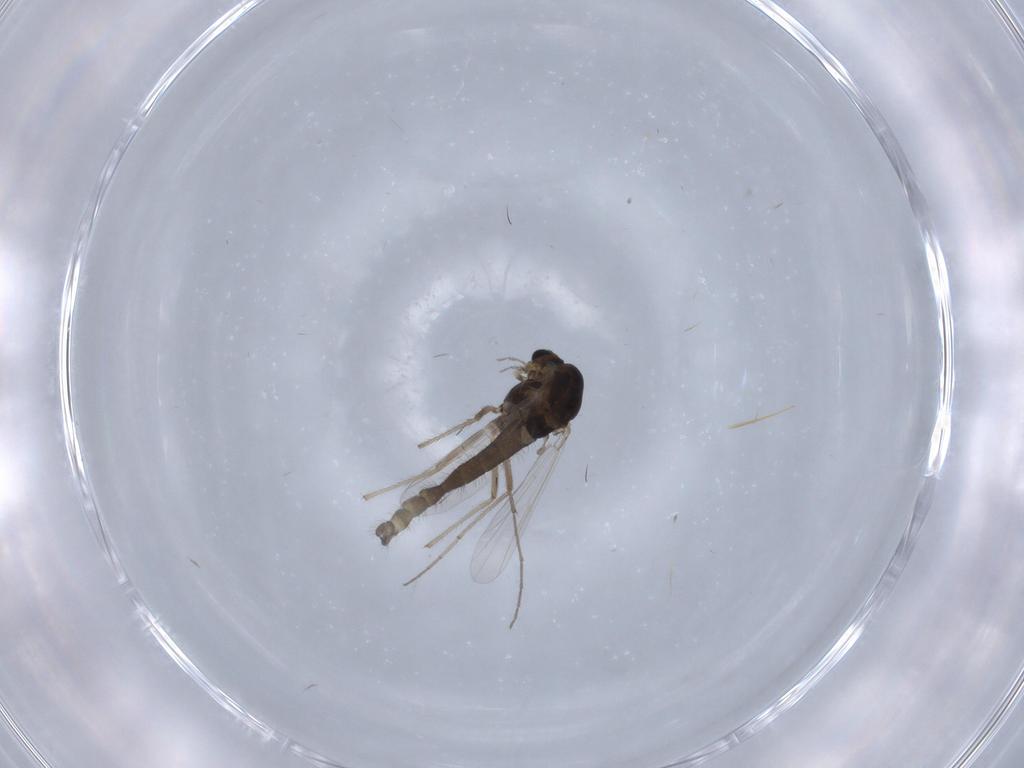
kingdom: Animalia
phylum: Arthropoda
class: Insecta
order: Diptera
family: Chironomidae
